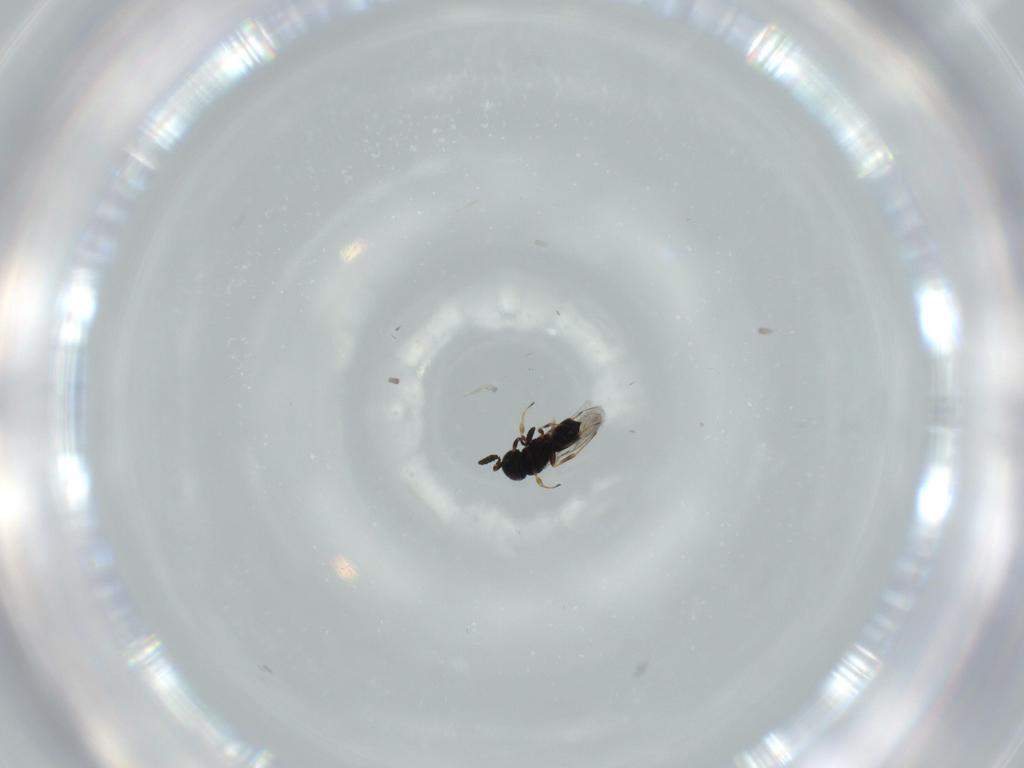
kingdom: Animalia
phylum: Arthropoda
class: Insecta
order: Hymenoptera
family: Scelionidae
